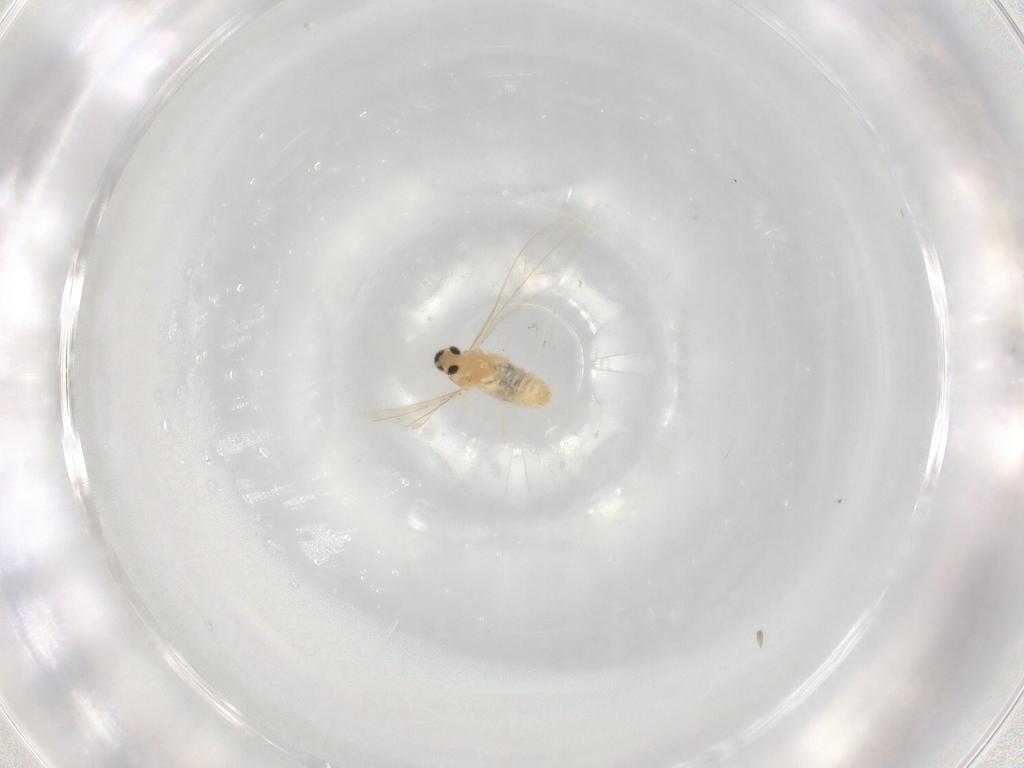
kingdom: Animalia
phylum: Arthropoda
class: Insecta
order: Diptera
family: Cecidomyiidae
